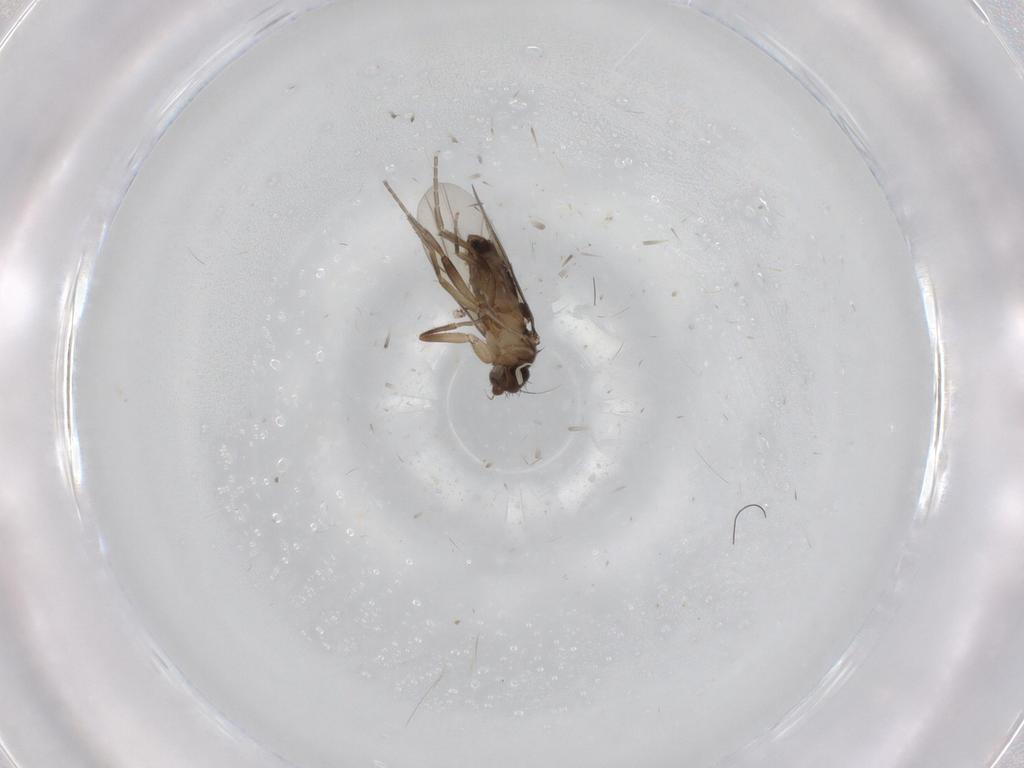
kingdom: Animalia
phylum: Arthropoda
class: Insecta
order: Diptera
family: Phoridae
